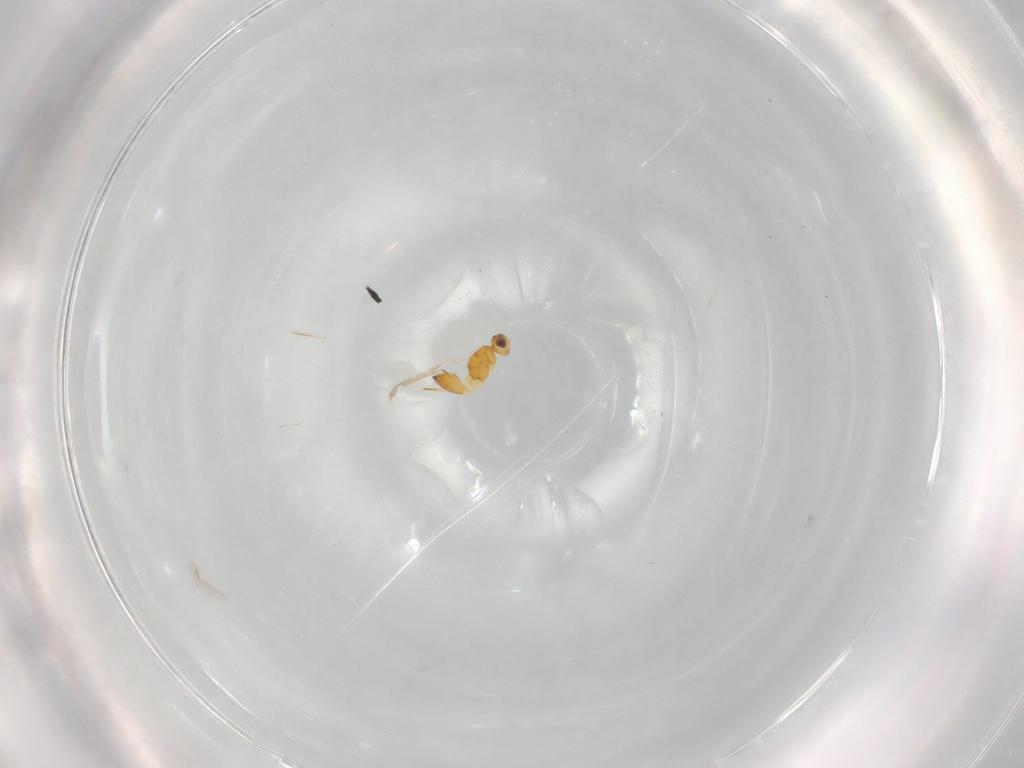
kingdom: Animalia
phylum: Arthropoda
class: Insecta
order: Hymenoptera
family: Mymaridae
